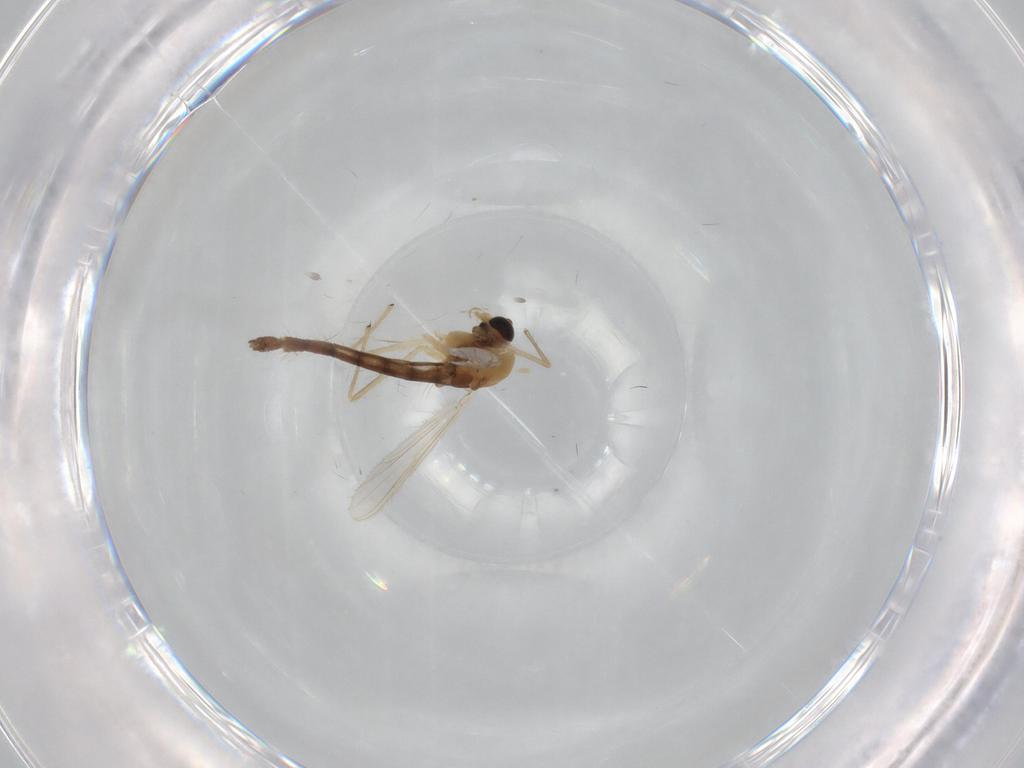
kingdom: Animalia
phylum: Arthropoda
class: Insecta
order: Diptera
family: Chironomidae
